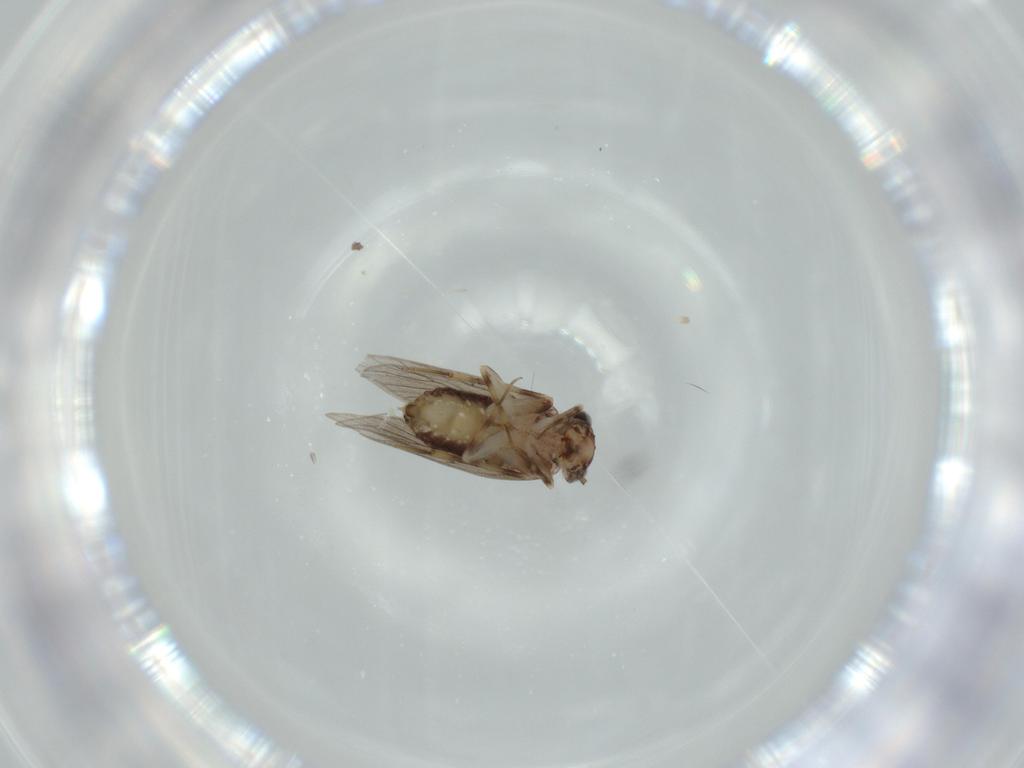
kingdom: Animalia
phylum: Arthropoda
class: Insecta
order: Psocodea
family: Lepidopsocidae
